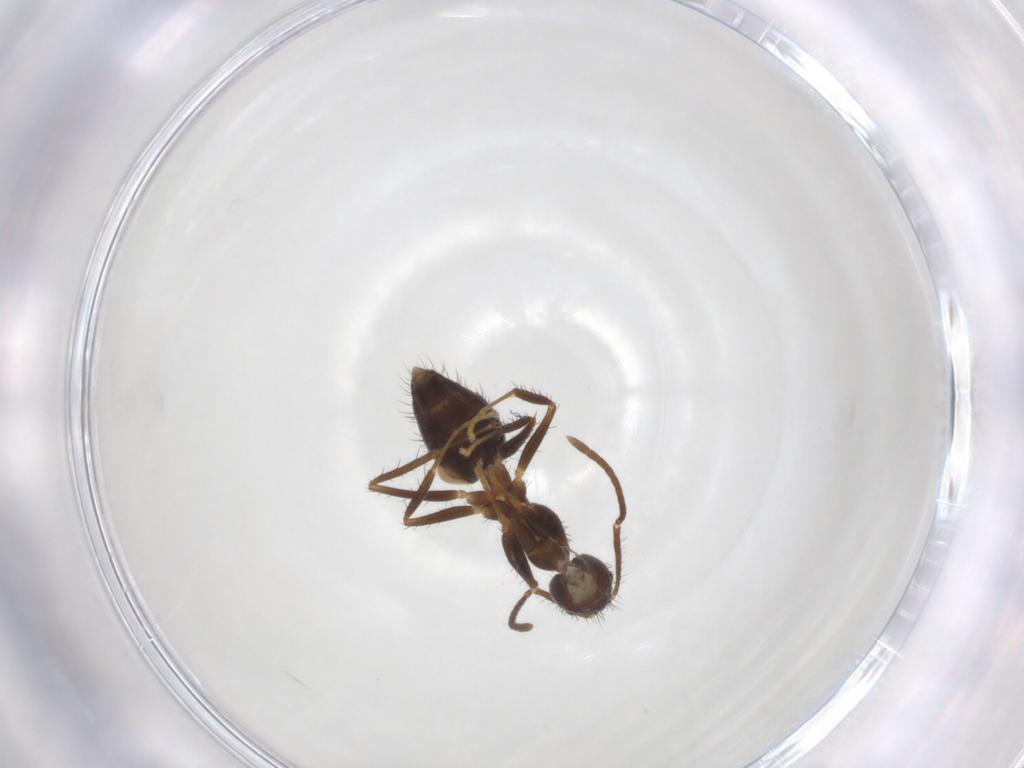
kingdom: Animalia
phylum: Arthropoda
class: Insecta
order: Hymenoptera
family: Formicidae
